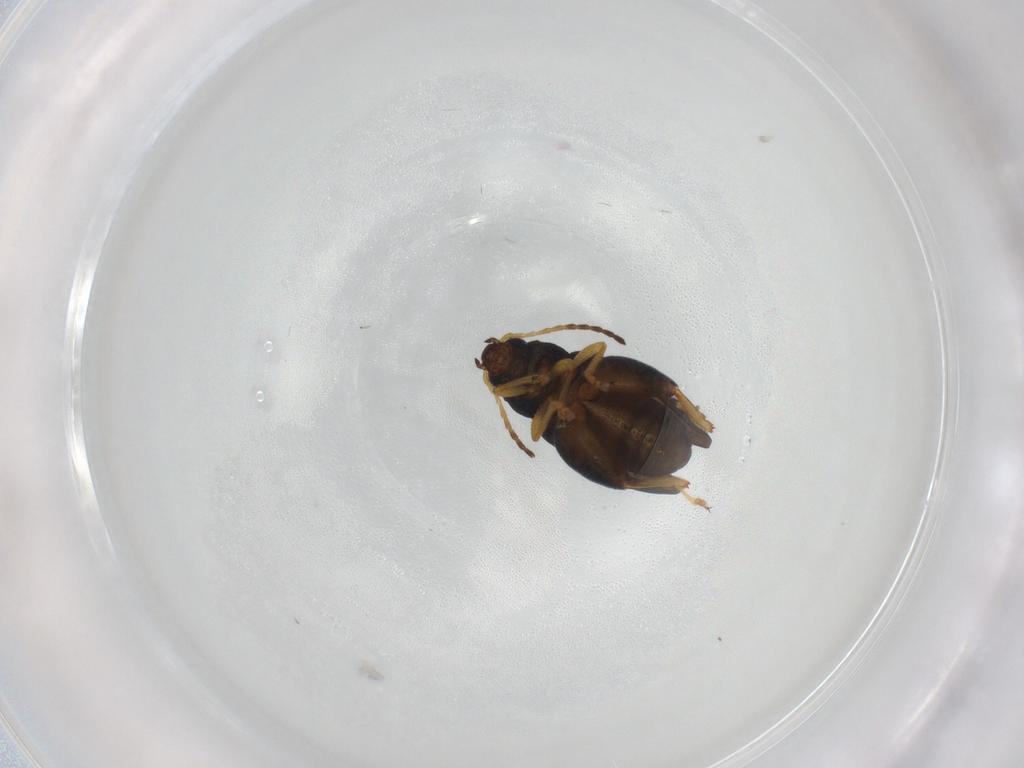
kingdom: Animalia
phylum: Arthropoda
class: Insecta
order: Coleoptera
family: Chrysomelidae
